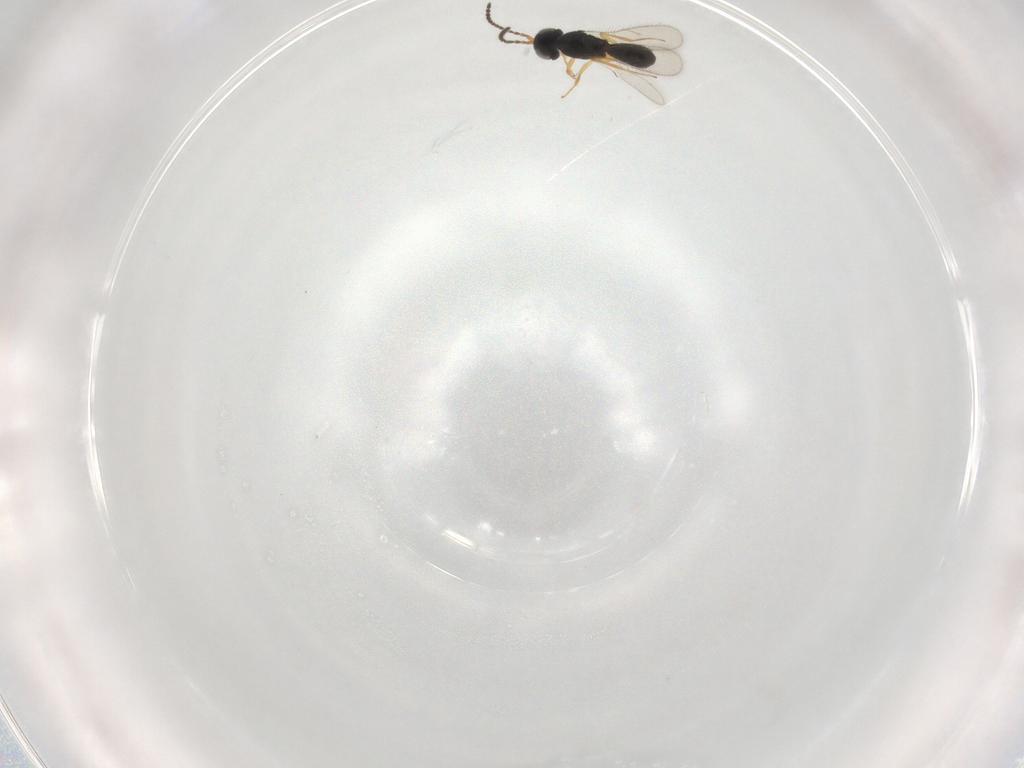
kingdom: Animalia
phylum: Arthropoda
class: Insecta
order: Hymenoptera
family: Scelionidae
